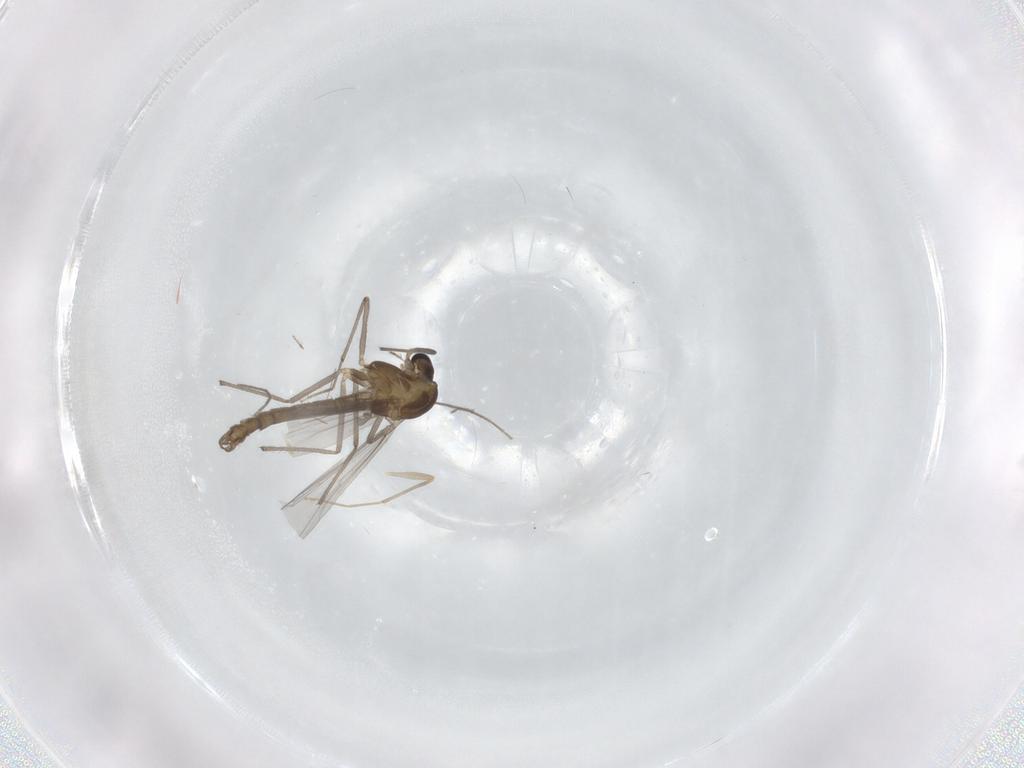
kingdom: Animalia
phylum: Arthropoda
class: Insecta
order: Diptera
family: Chironomidae
